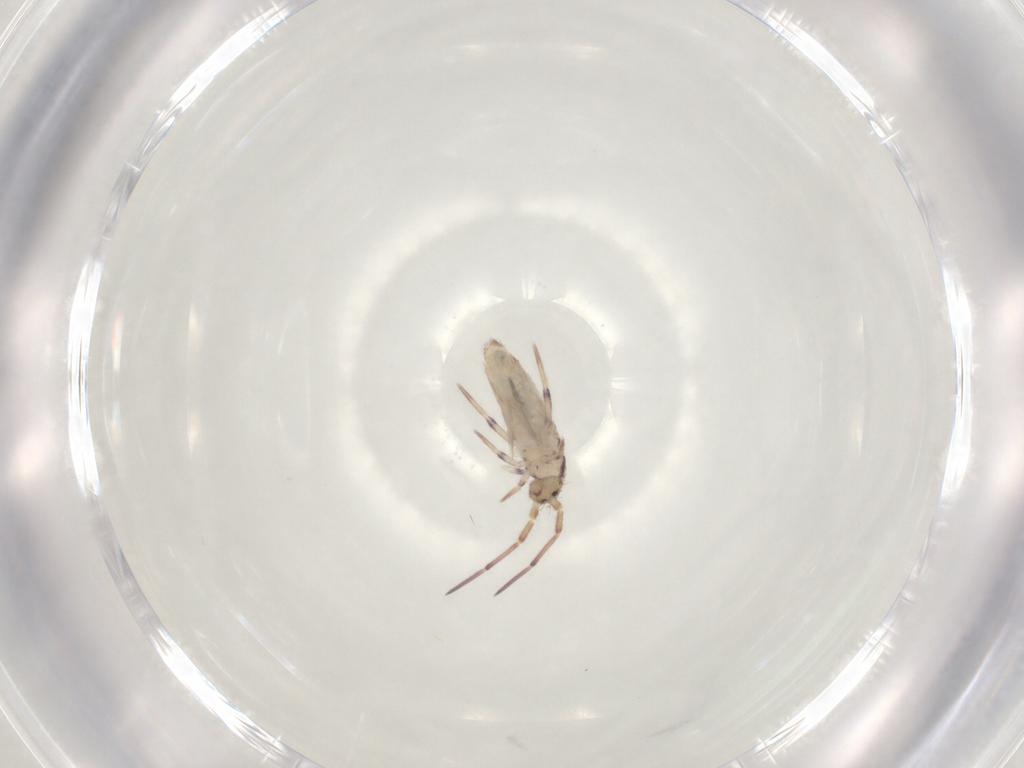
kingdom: Animalia
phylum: Arthropoda
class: Collembola
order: Entomobryomorpha
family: Entomobryidae
